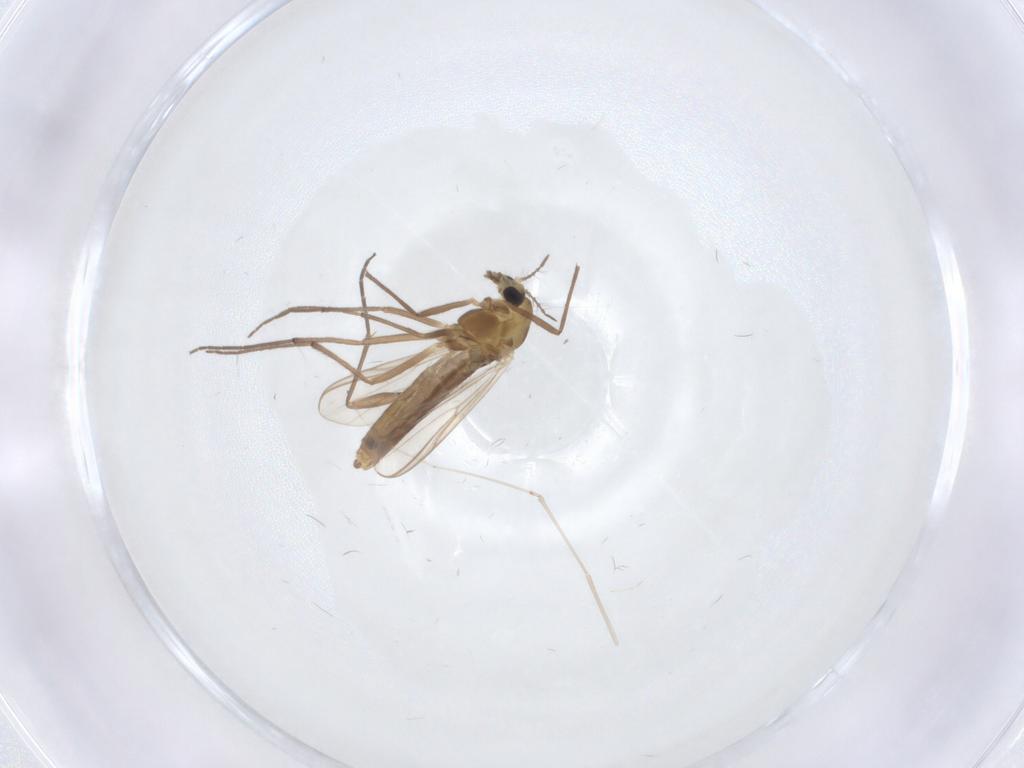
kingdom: Animalia
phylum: Arthropoda
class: Insecta
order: Diptera
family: Chironomidae
